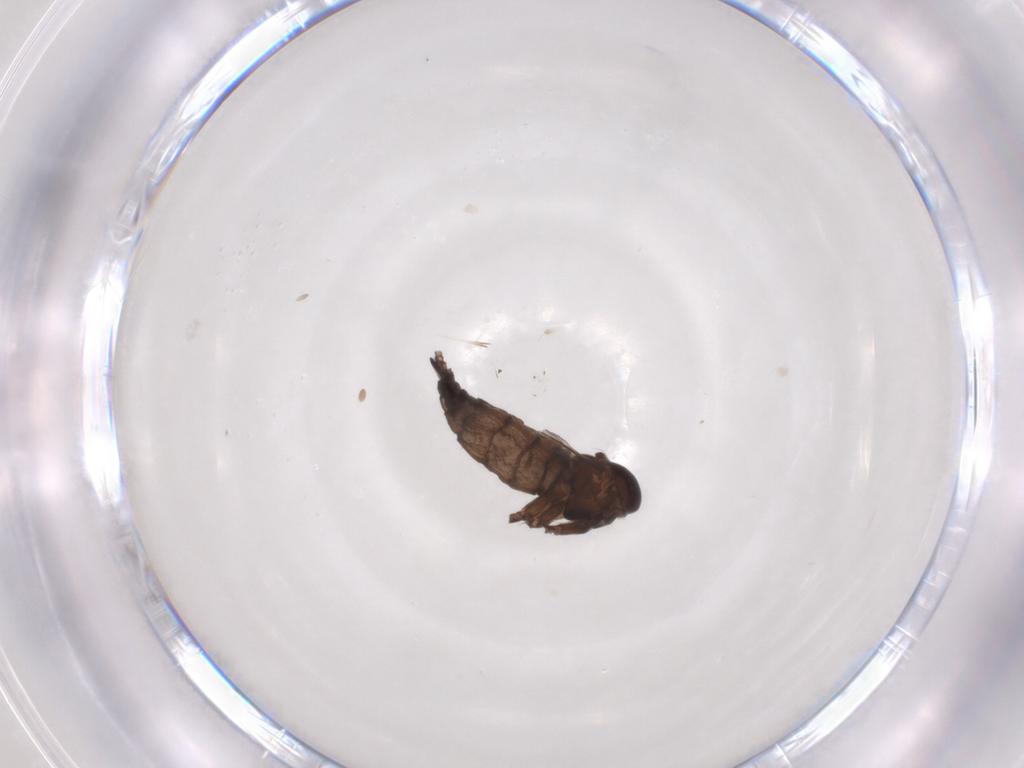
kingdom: Animalia
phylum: Arthropoda
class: Insecta
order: Diptera
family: Sciaridae
